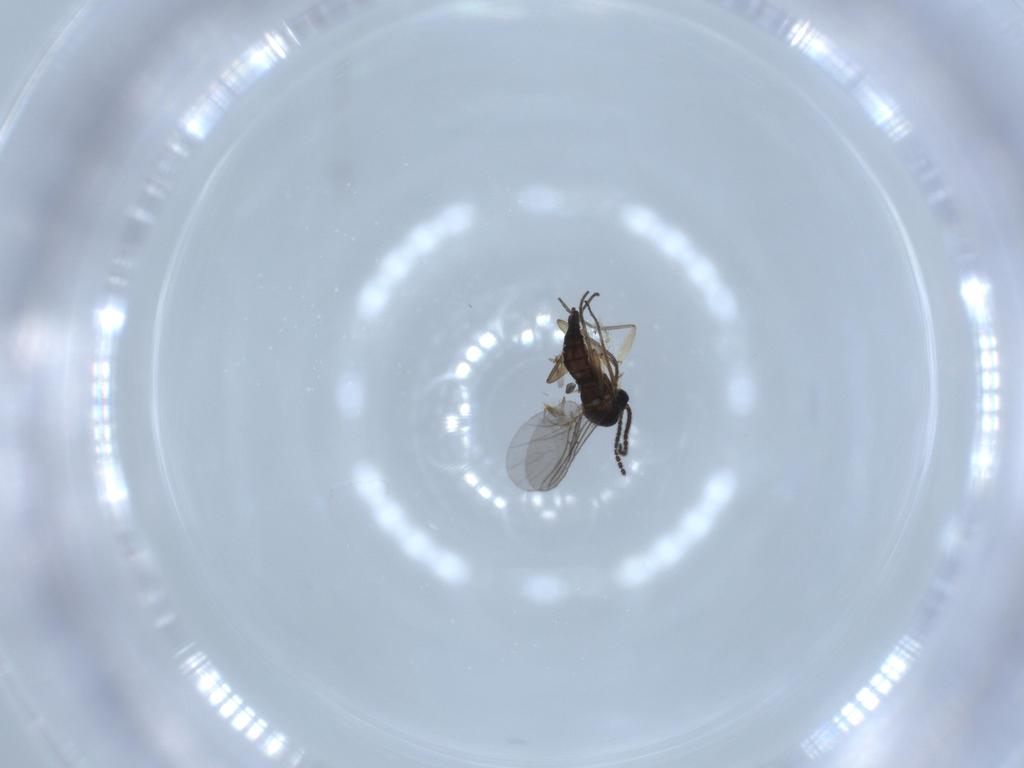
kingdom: Animalia
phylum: Arthropoda
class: Insecta
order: Diptera
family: Sciaridae
